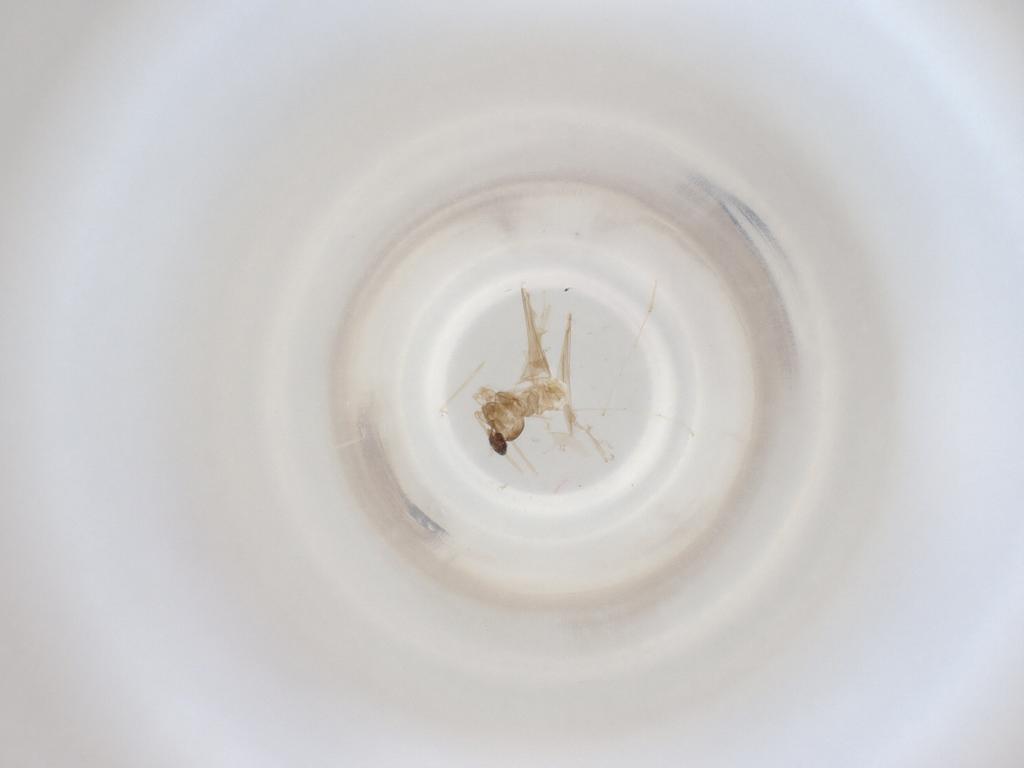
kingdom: Animalia
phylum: Arthropoda
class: Insecta
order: Diptera
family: Cecidomyiidae
